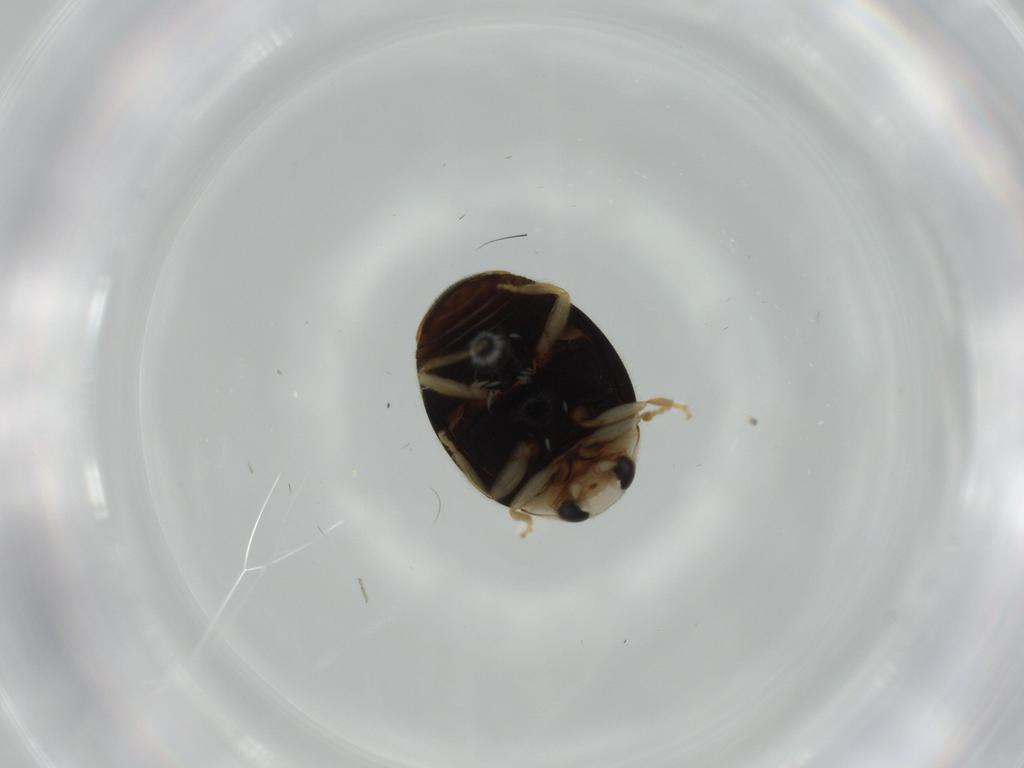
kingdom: Animalia
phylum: Arthropoda
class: Insecta
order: Coleoptera
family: Coccinellidae
